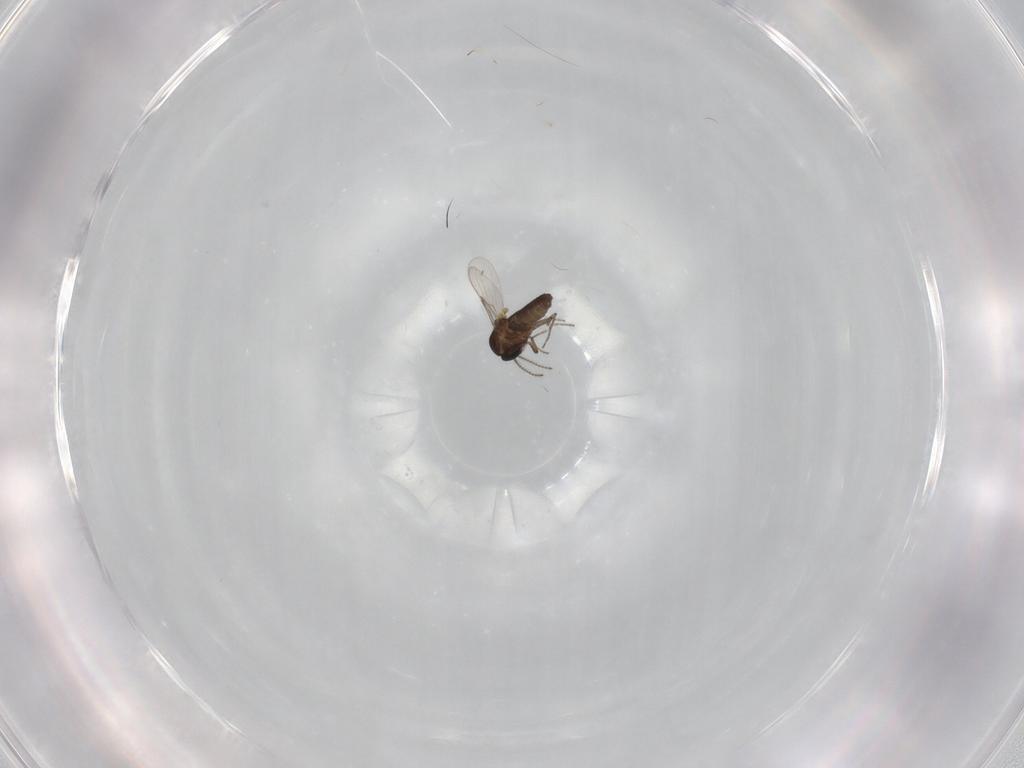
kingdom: Animalia
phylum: Arthropoda
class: Insecta
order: Diptera
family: Ceratopogonidae
